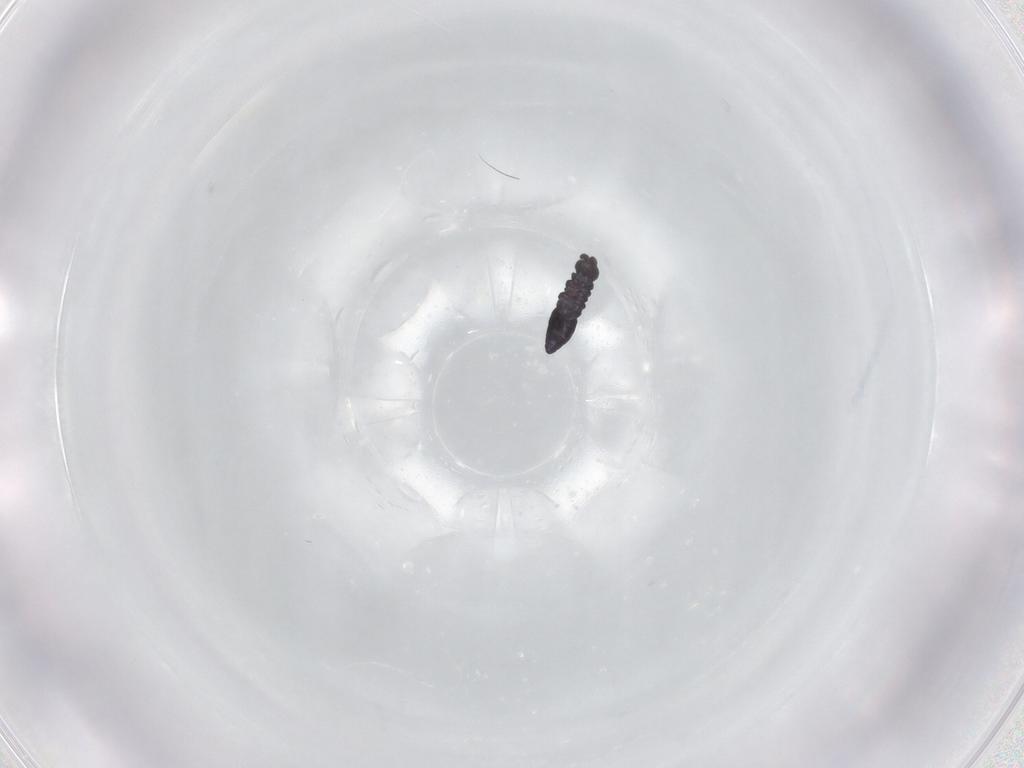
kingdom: Animalia
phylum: Arthropoda
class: Collembola
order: Poduromorpha
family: Hypogastruridae
